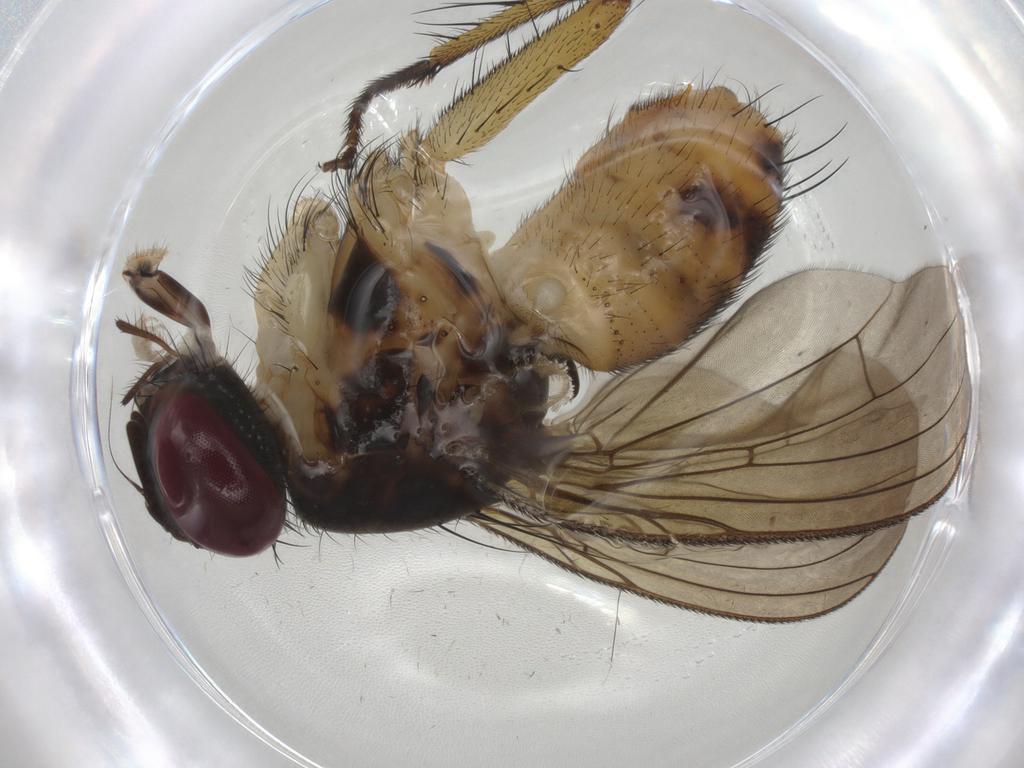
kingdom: Animalia
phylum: Arthropoda
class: Insecta
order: Diptera
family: Muscidae
